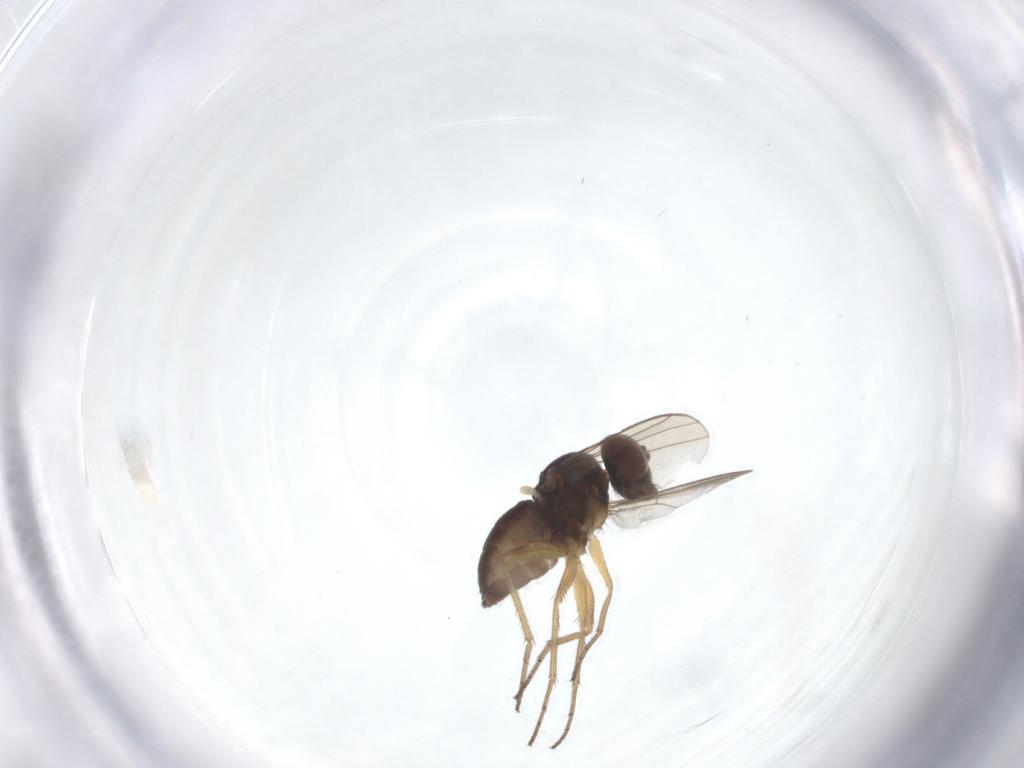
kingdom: Animalia
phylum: Arthropoda
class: Insecta
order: Diptera
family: Dolichopodidae
